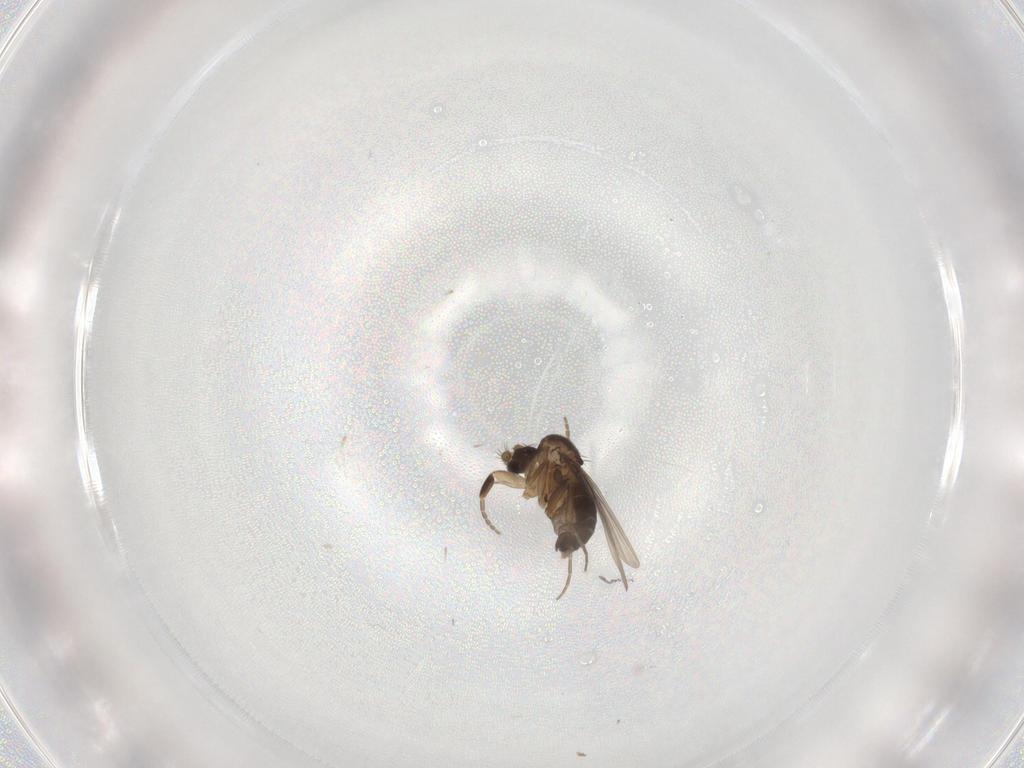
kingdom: Animalia
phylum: Arthropoda
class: Insecta
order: Diptera
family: Phoridae
